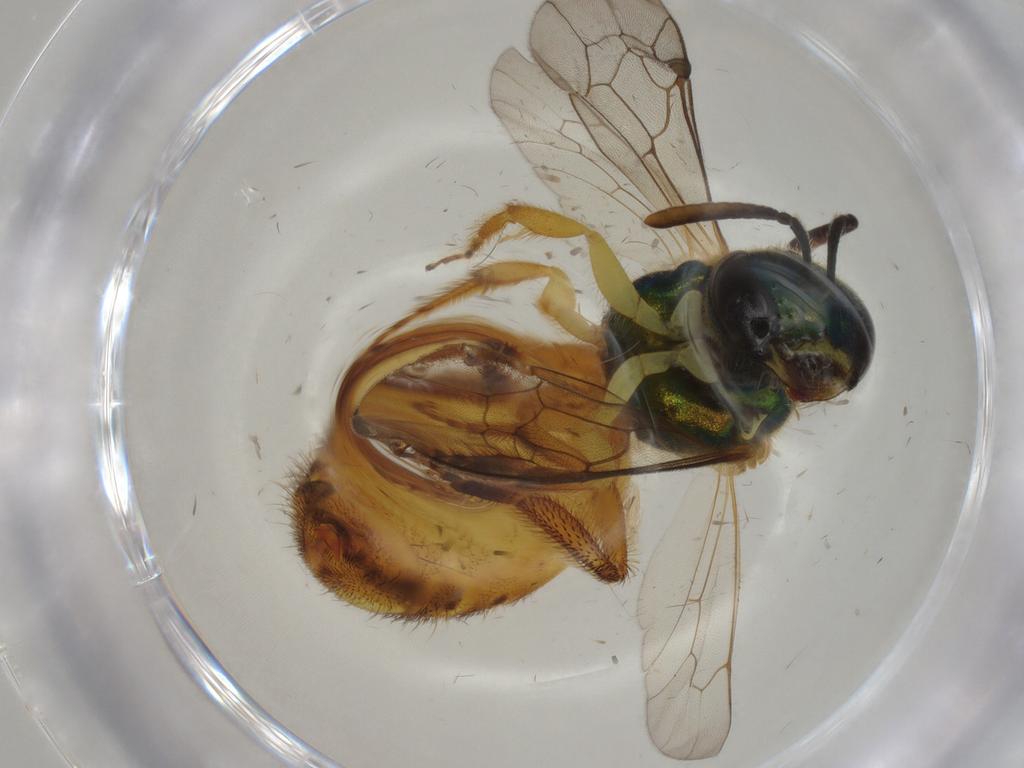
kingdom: Animalia
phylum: Arthropoda
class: Insecta
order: Hymenoptera
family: Halictidae
